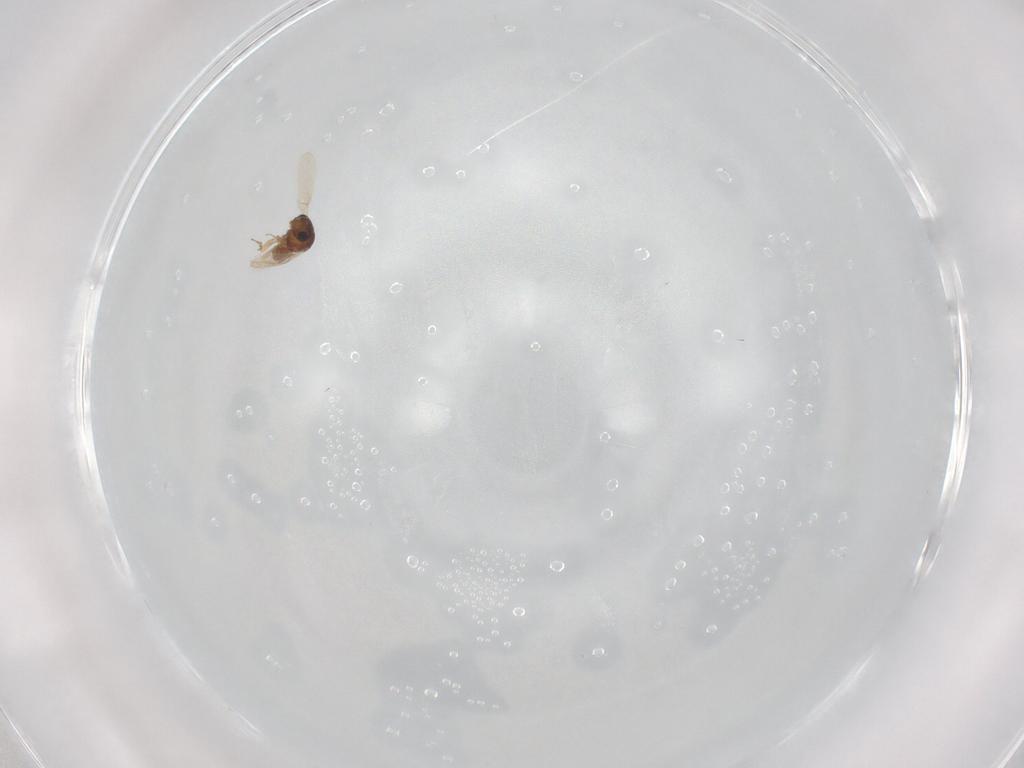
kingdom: Animalia
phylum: Arthropoda
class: Insecta
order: Hymenoptera
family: Scelionidae
